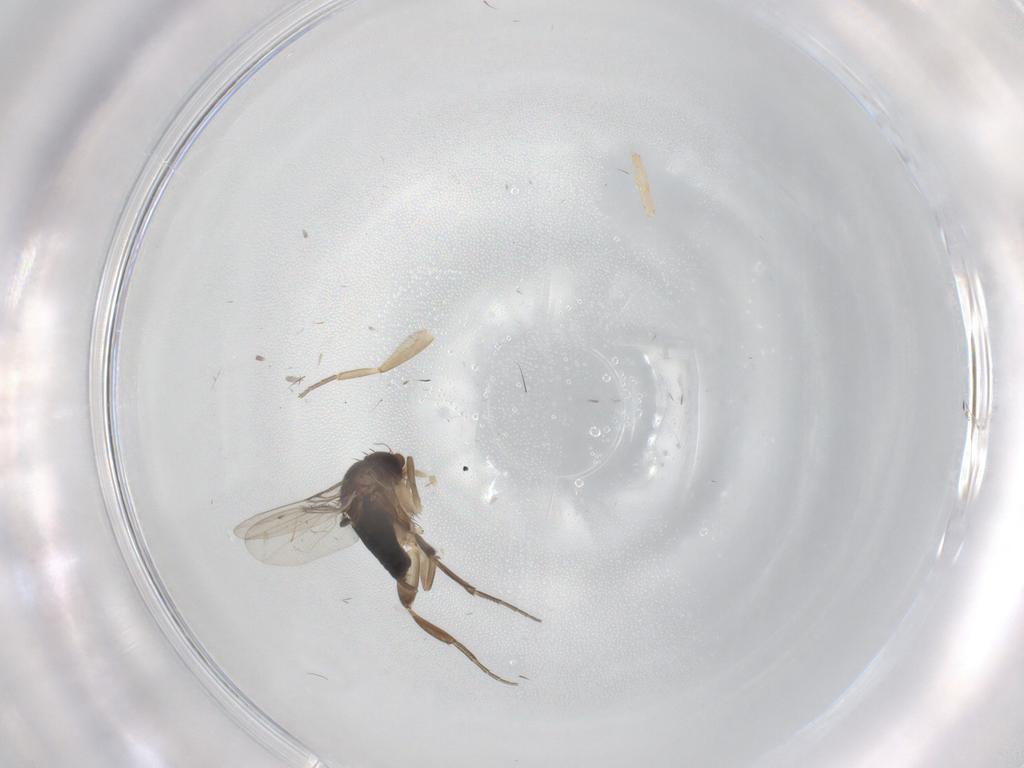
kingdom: Animalia
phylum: Arthropoda
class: Insecta
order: Diptera
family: Phoridae
